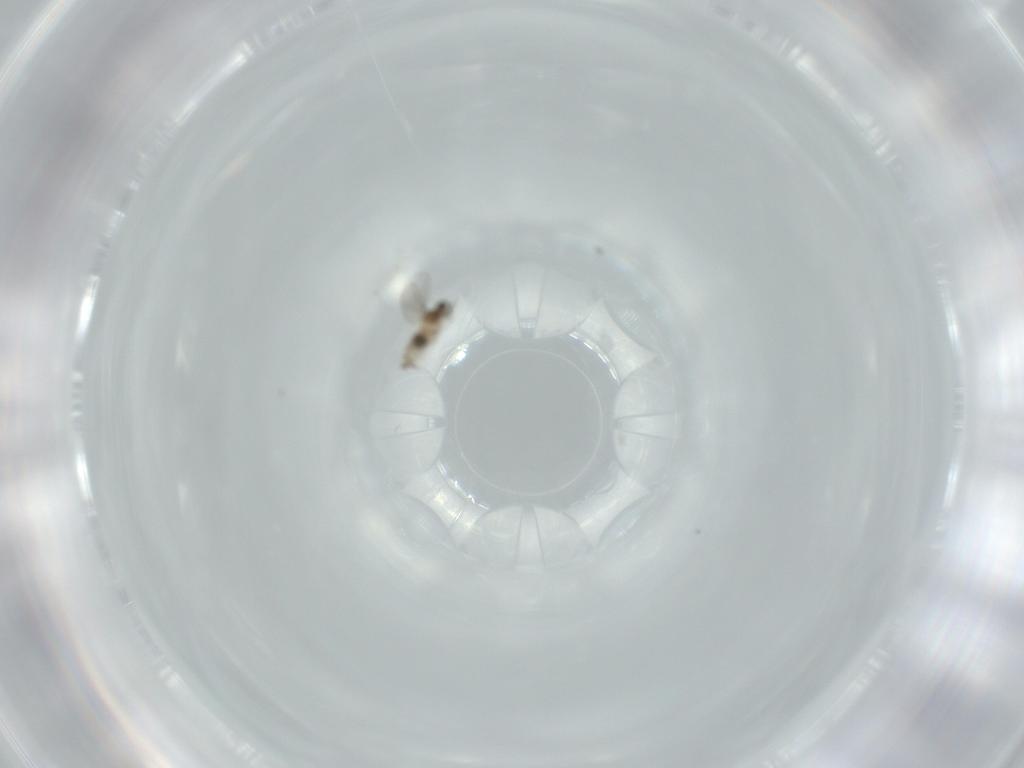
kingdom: Animalia
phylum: Arthropoda
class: Insecta
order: Diptera
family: Cecidomyiidae
